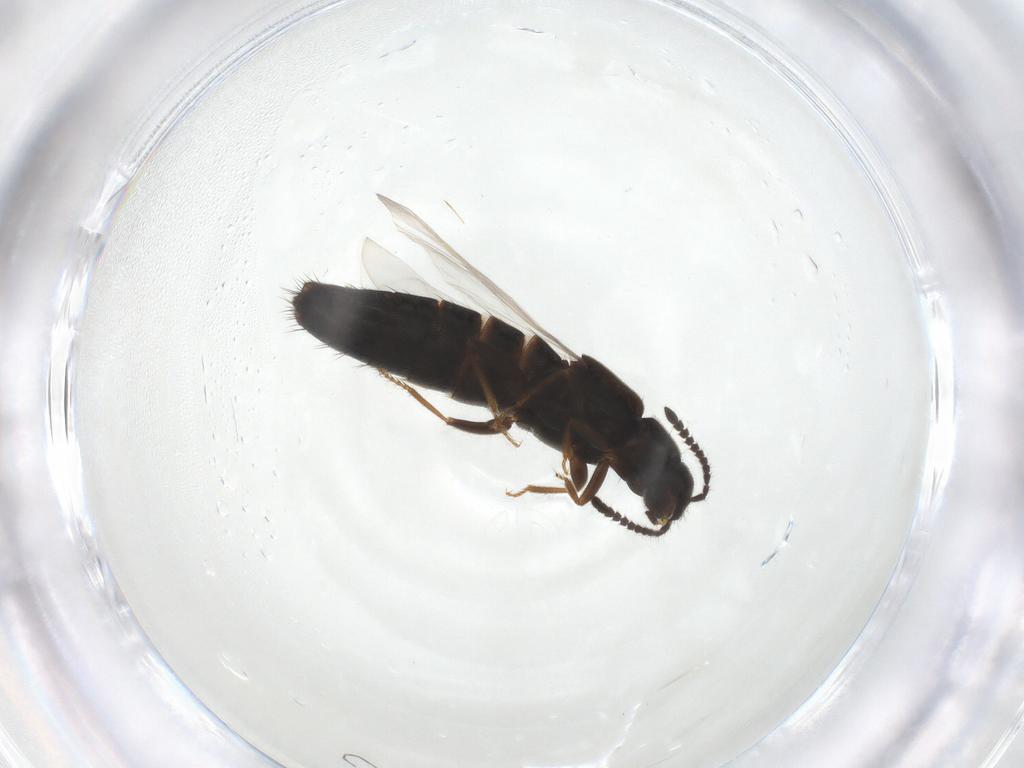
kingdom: Animalia
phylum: Arthropoda
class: Insecta
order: Coleoptera
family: Staphylinidae
